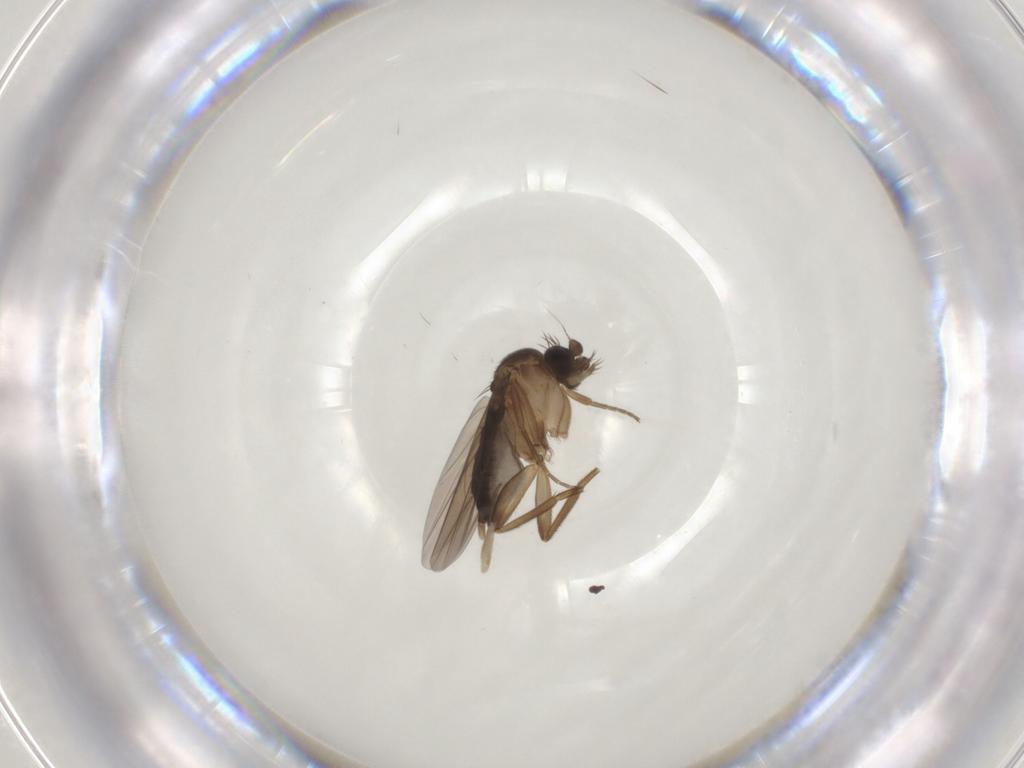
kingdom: Animalia
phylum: Arthropoda
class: Insecta
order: Diptera
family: Phoridae
